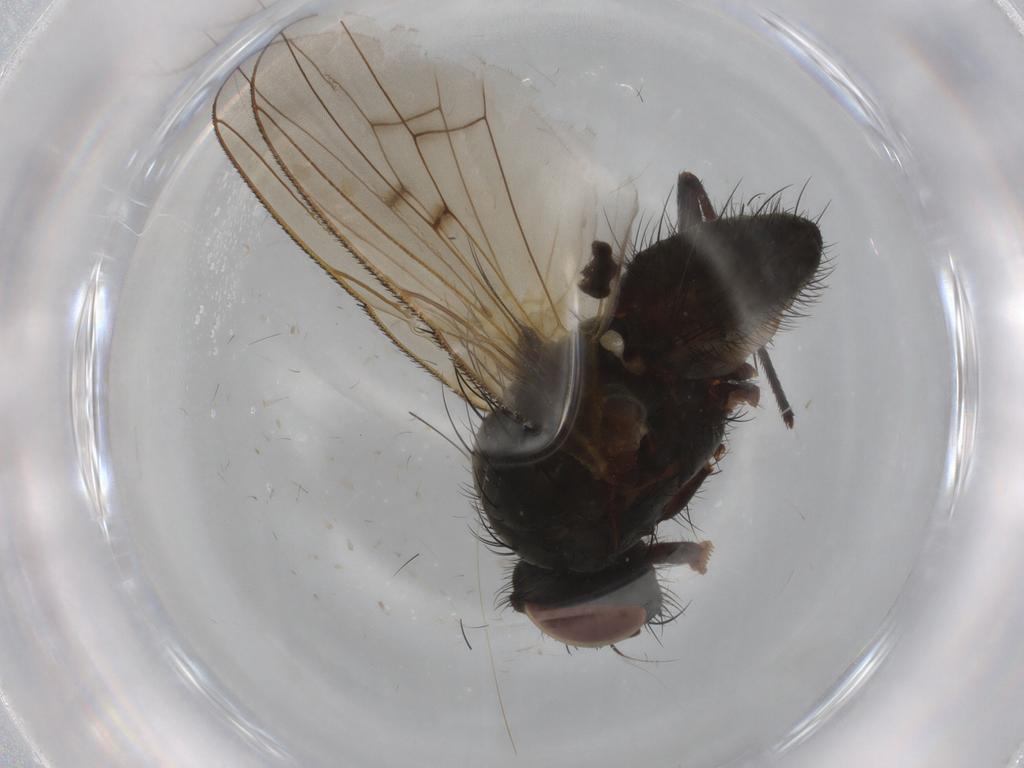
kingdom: Animalia
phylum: Arthropoda
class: Insecta
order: Diptera
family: Anthomyiidae
